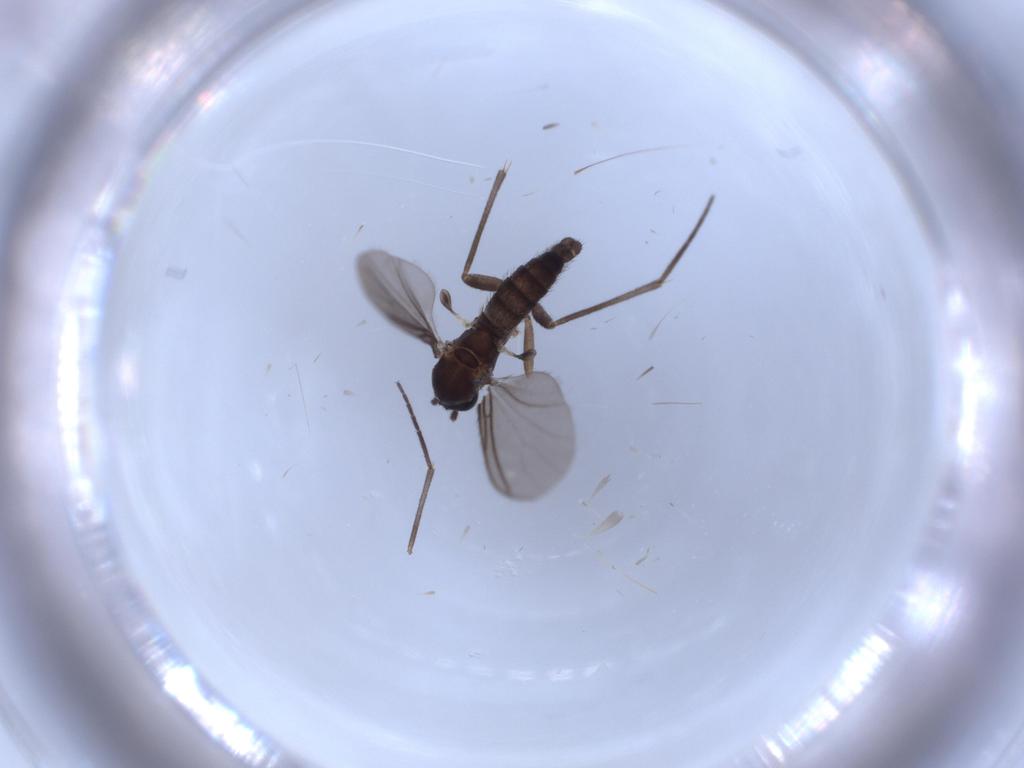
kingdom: Animalia
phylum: Arthropoda
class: Insecta
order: Diptera
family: Sciaridae
